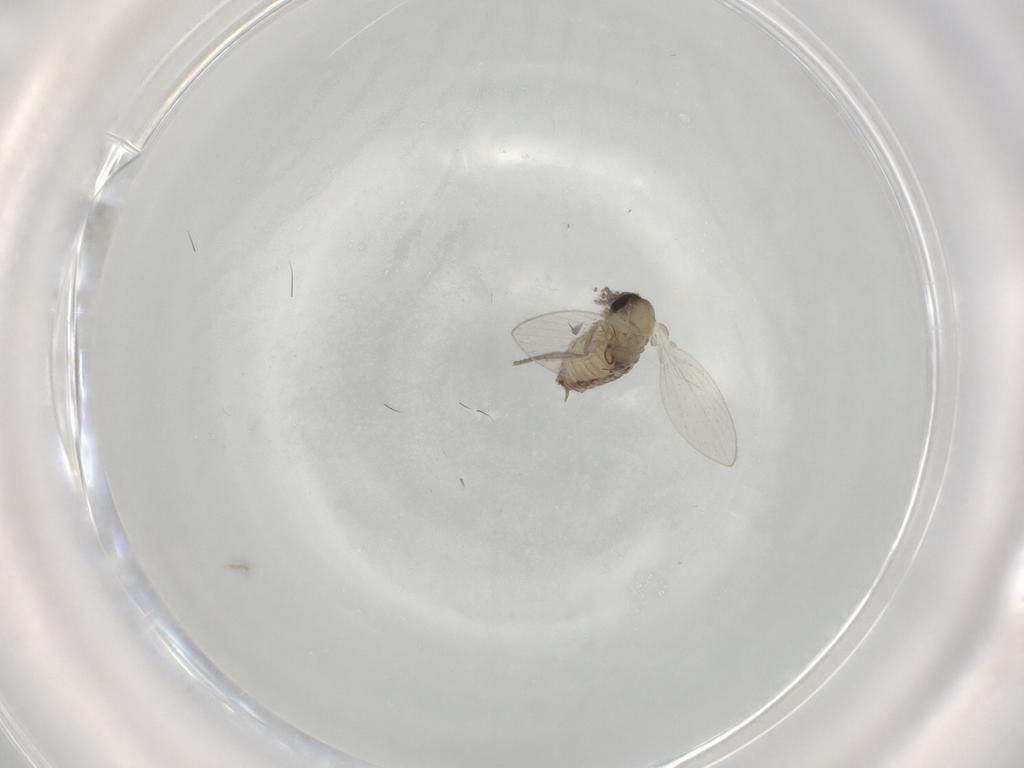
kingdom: Animalia
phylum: Arthropoda
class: Insecta
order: Diptera
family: Psychodidae
